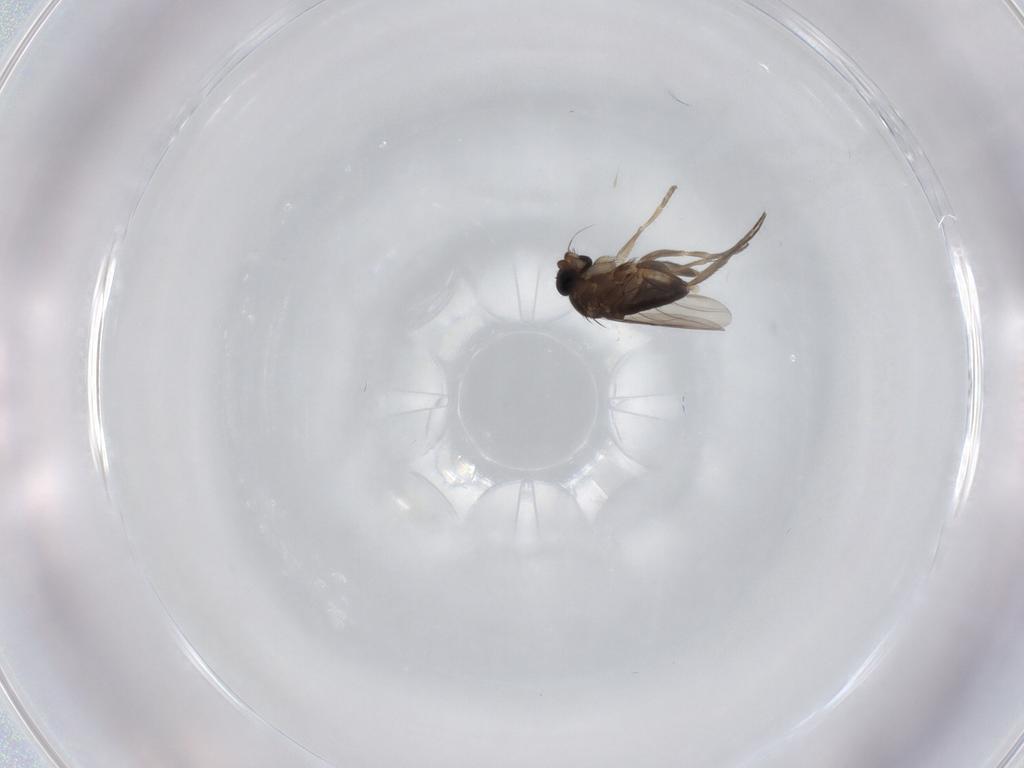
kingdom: Animalia
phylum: Arthropoda
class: Insecta
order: Diptera
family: Phoridae
